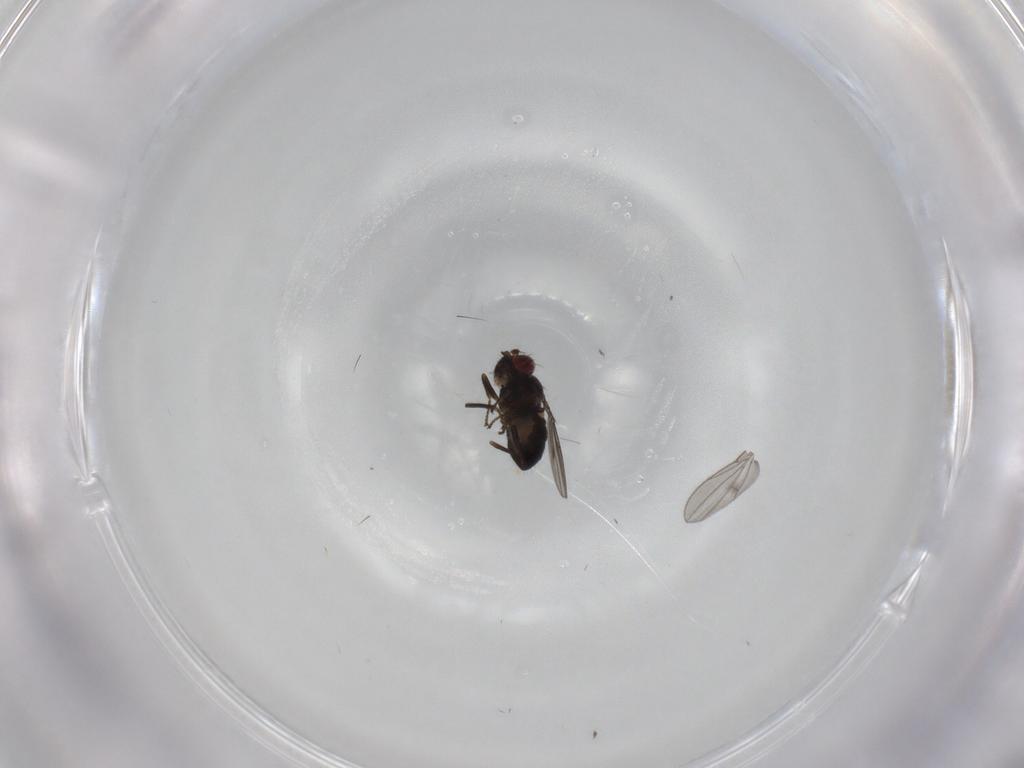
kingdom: Animalia
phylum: Arthropoda
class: Insecta
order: Diptera
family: Ephydridae
